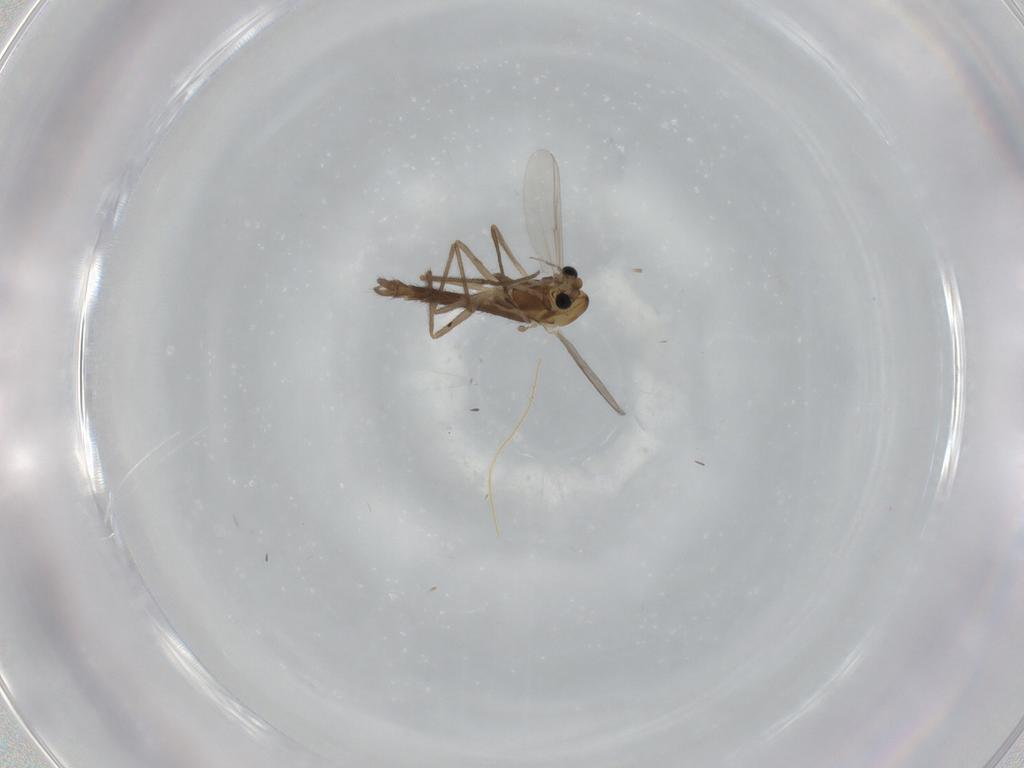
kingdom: Animalia
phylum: Arthropoda
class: Insecta
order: Diptera
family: Chironomidae
